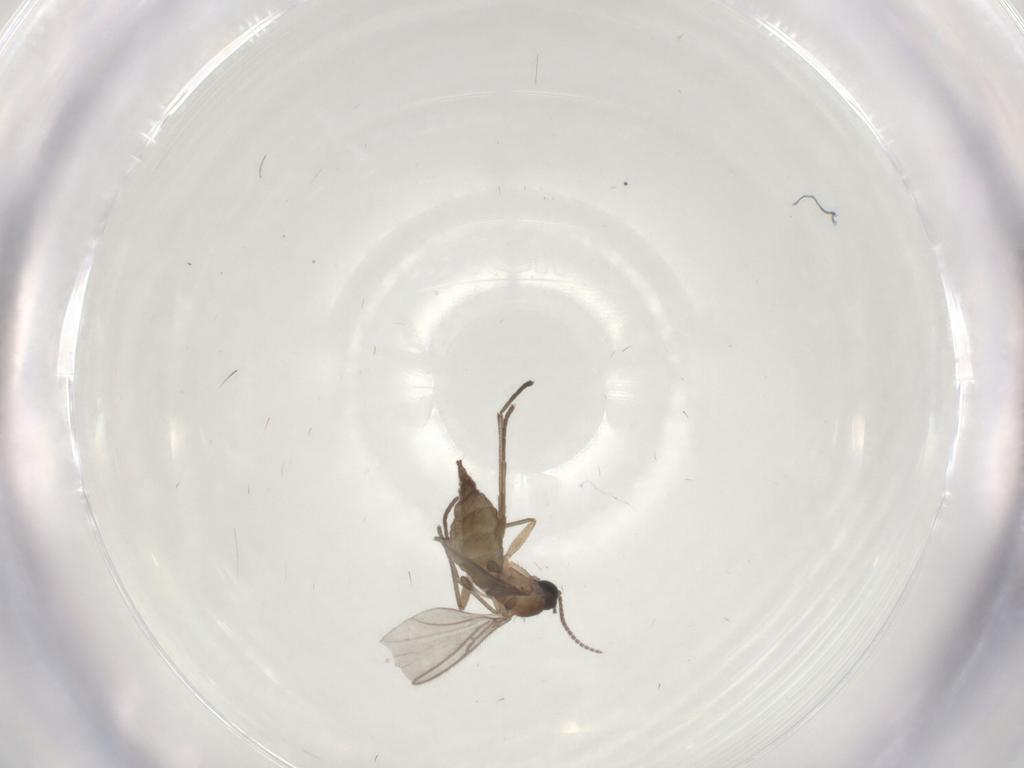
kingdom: Animalia
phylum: Arthropoda
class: Insecta
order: Diptera
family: Sciaridae
